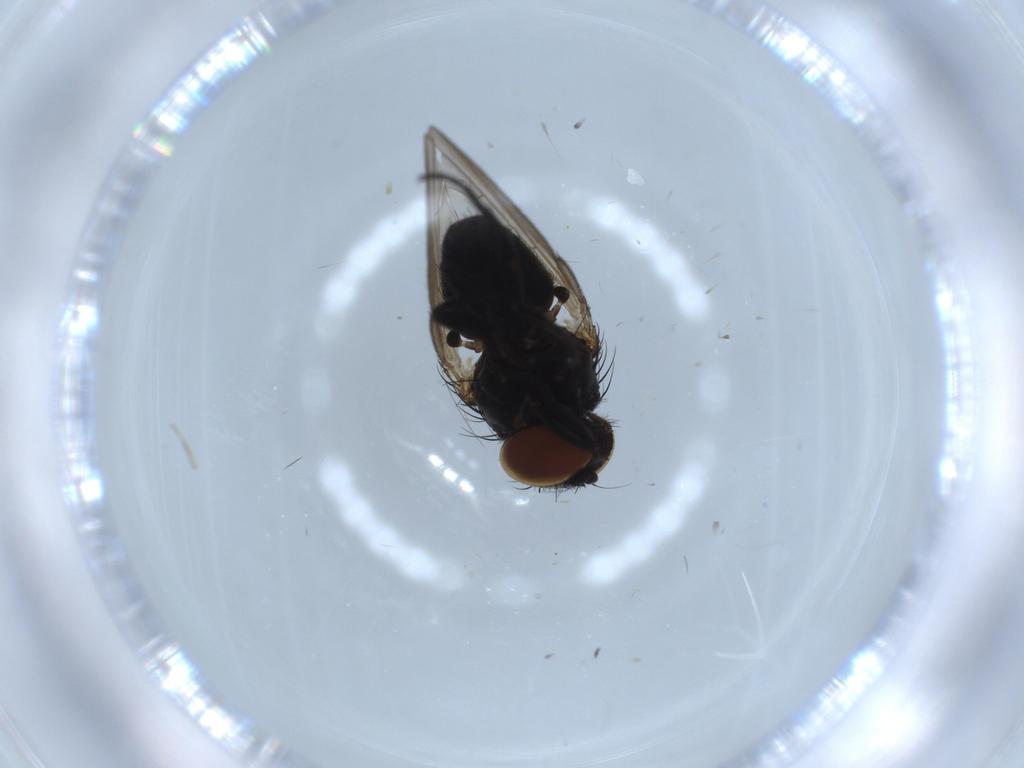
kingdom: Animalia
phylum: Arthropoda
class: Insecta
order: Diptera
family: Milichiidae
